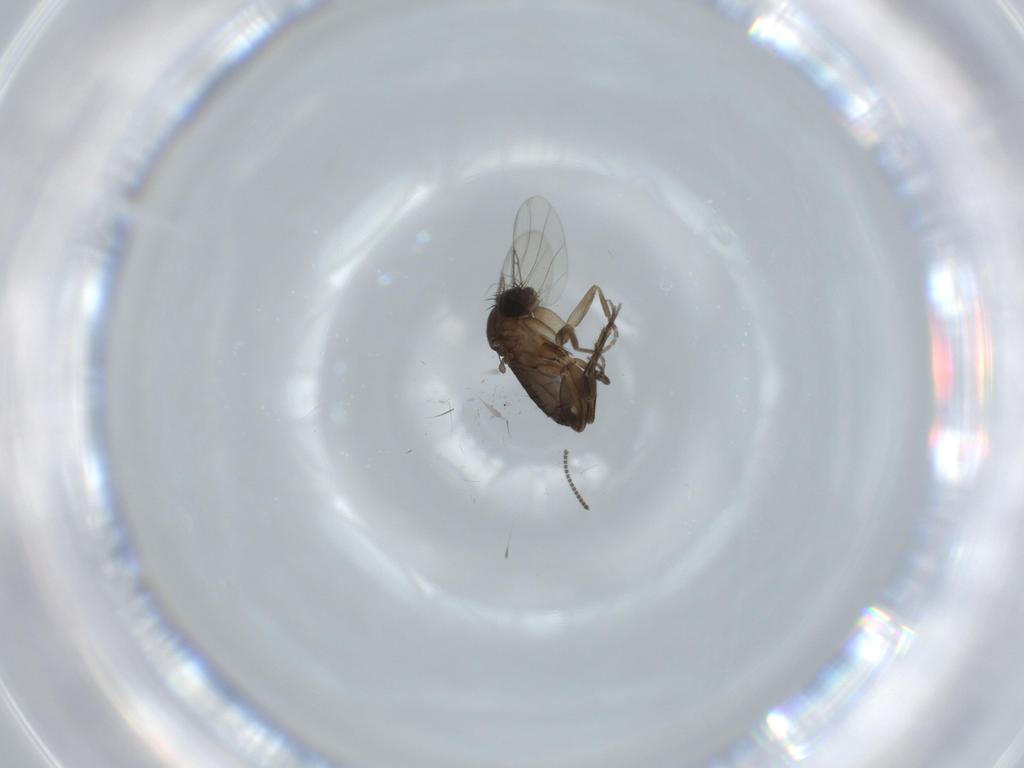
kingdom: Animalia
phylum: Arthropoda
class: Insecta
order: Diptera
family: Phoridae
